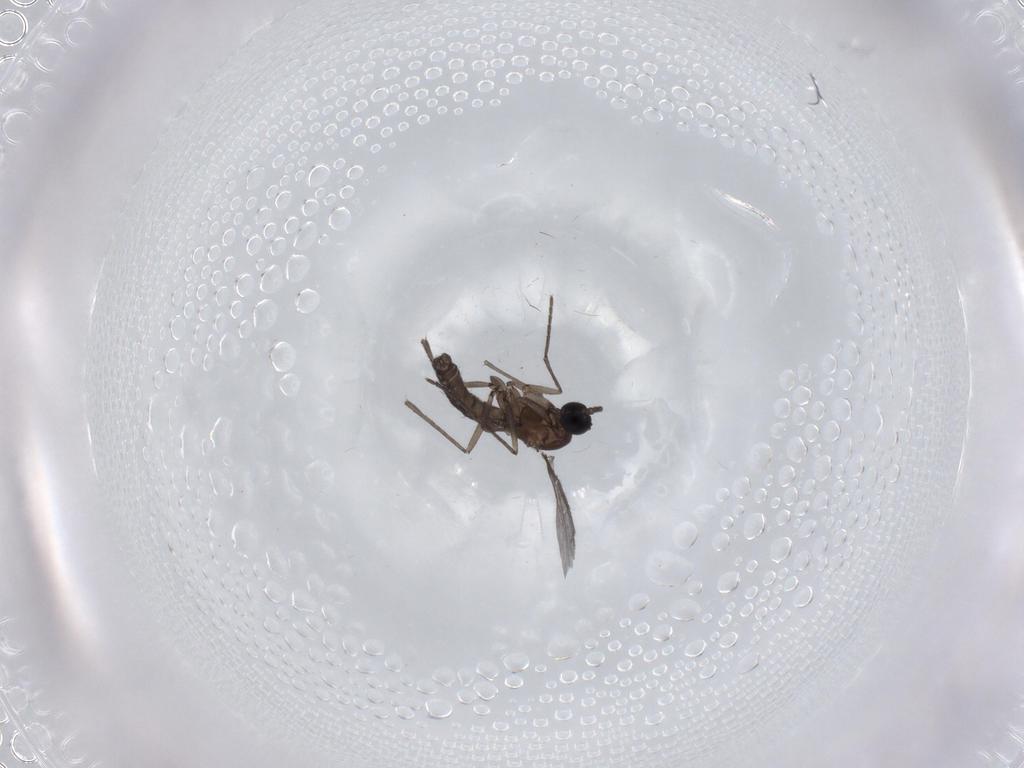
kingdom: Animalia
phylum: Arthropoda
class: Insecta
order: Diptera
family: Sciaridae
